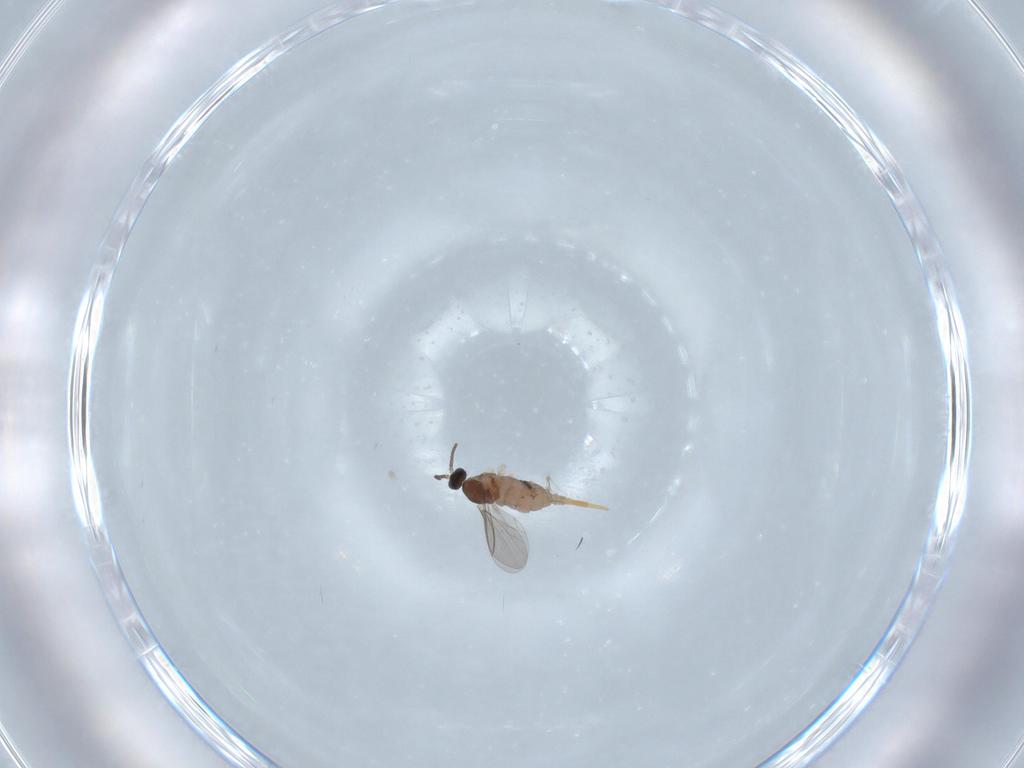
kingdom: Animalia
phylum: Arthropoda
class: Insecta
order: Diptera
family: Cecidomyiidae
